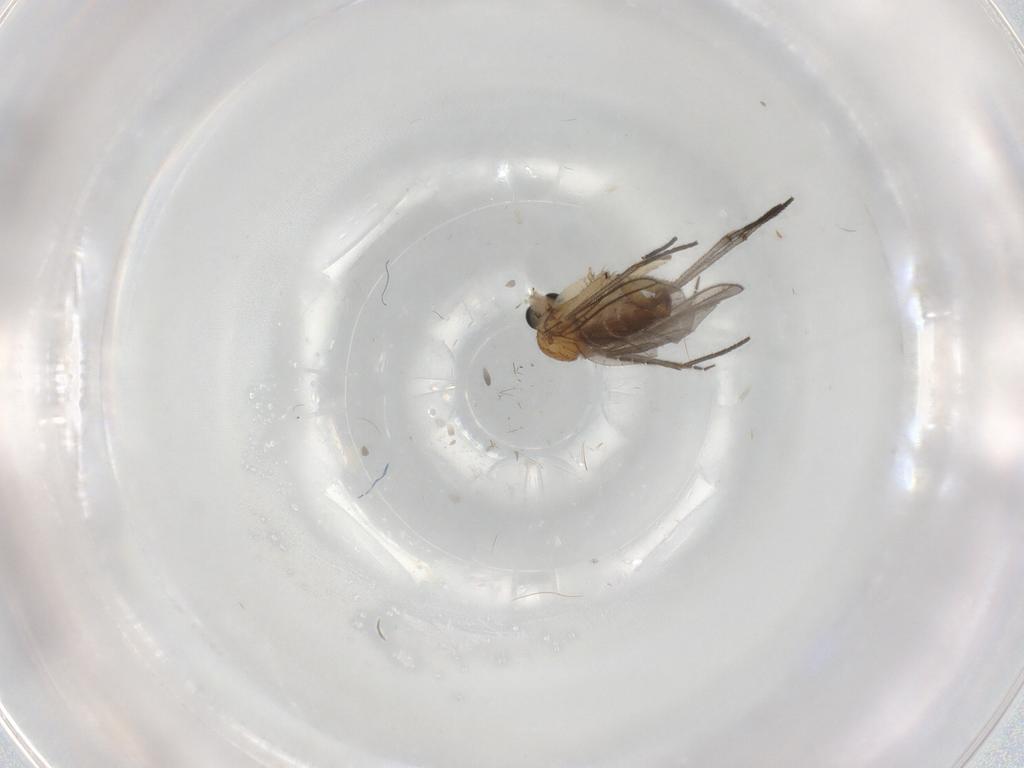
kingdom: Animalia
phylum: Arthropoda
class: Insecta
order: Diptera
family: Sciaridae
